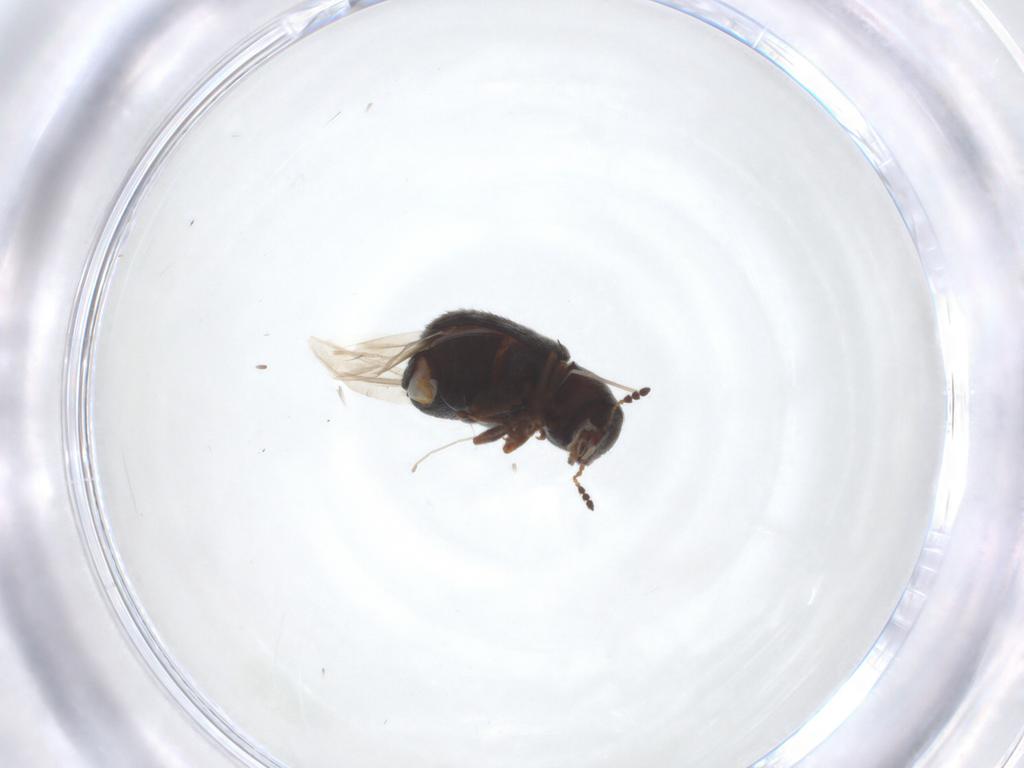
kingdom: Animalia
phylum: Arthropoda
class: Insecta
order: Coleoptera
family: Anthribidae
